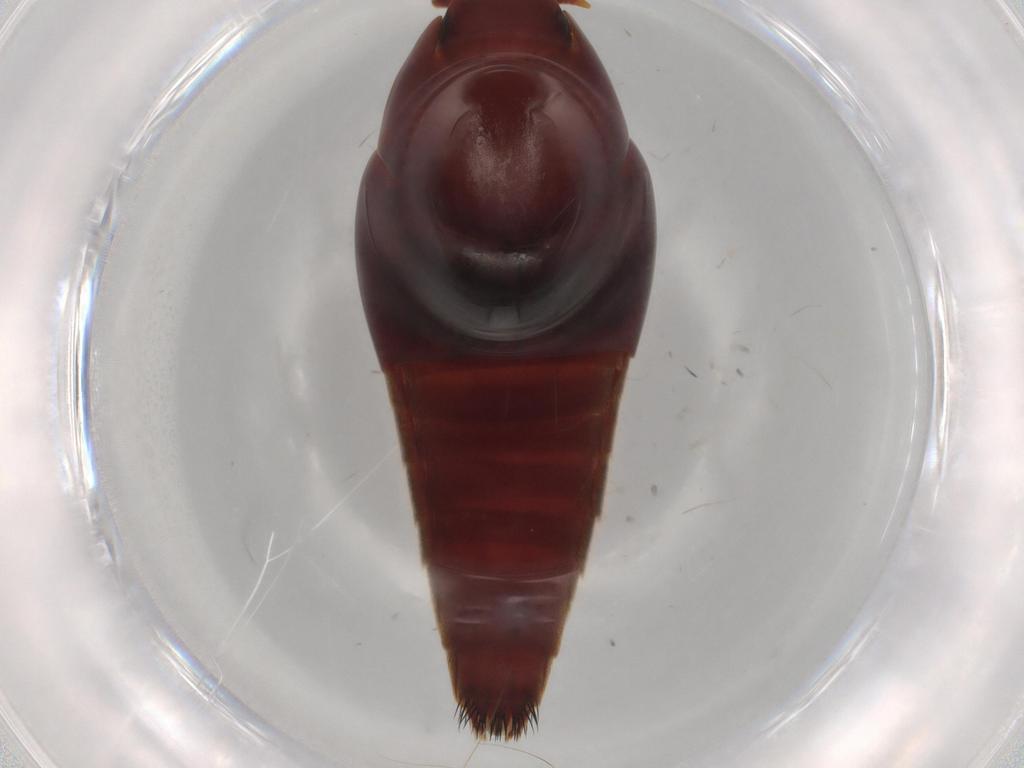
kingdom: Animalia
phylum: Arthropoda
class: Insecta
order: Coleoptera
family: Staphylinidae
